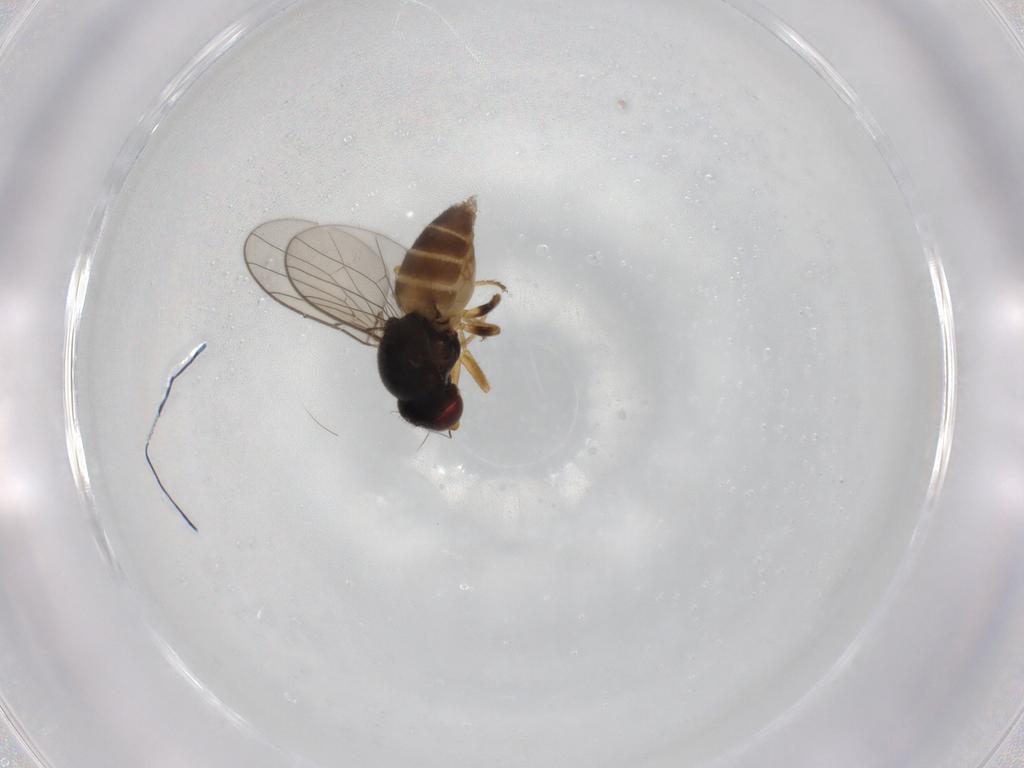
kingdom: Animalia
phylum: Arthropoda
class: Insecta
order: Diptera
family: Chloropidae
